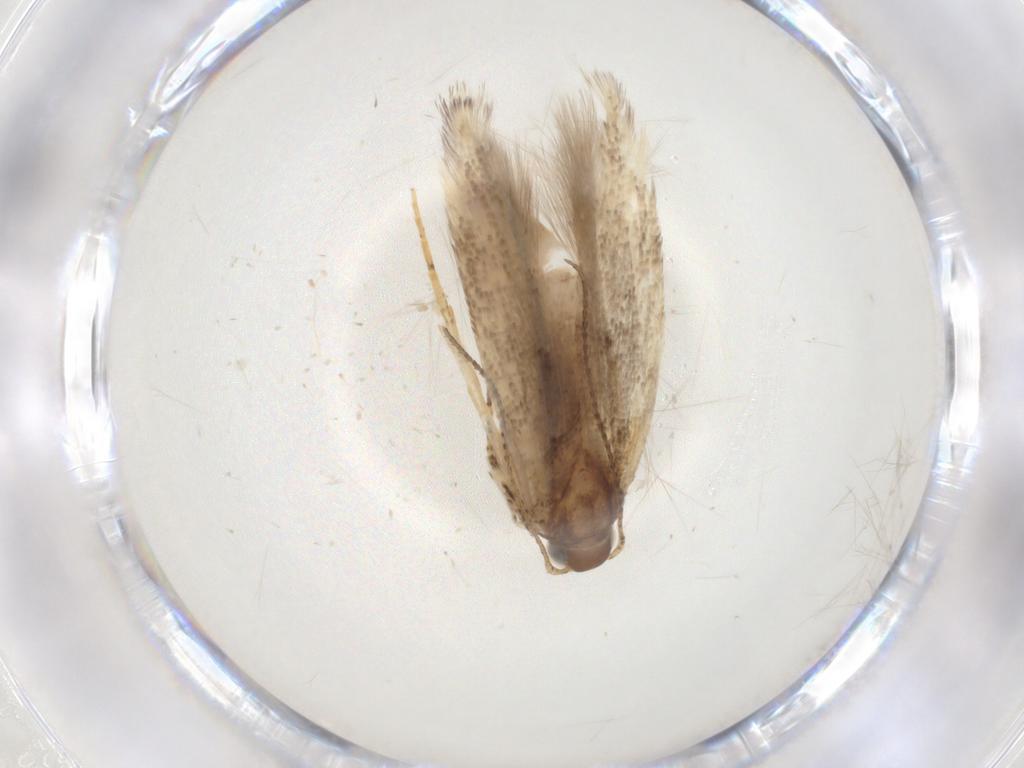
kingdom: Animalia
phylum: Arthropoda
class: Insecta
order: Lepidoptera
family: Gelechiidae
